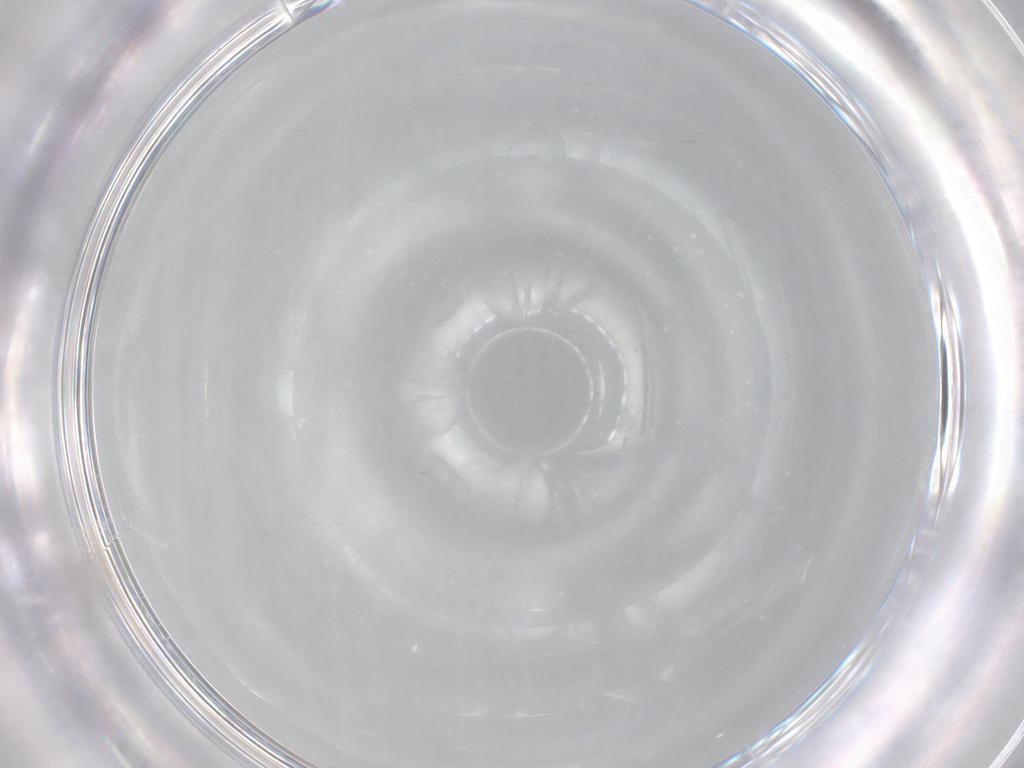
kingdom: Animalia
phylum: Arthropoda
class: Insecta
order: Diptera
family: Cecidomyiidae
